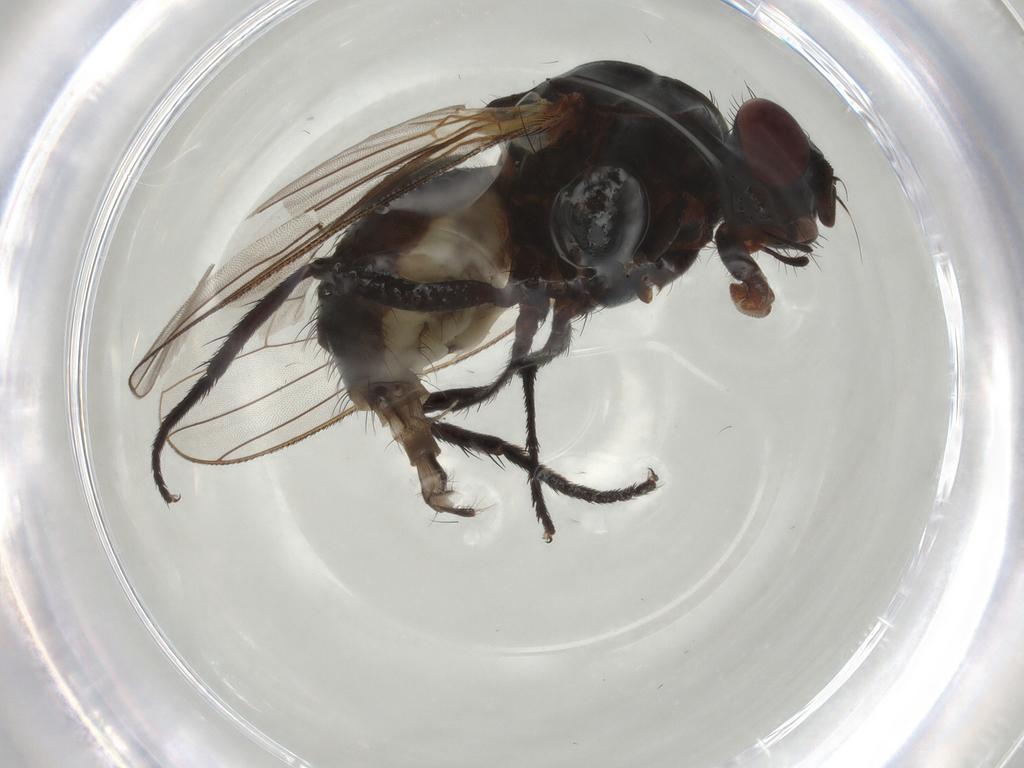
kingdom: Animalia
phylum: Arthropoda
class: Insecta
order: Diptera
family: Anthomyiidae
